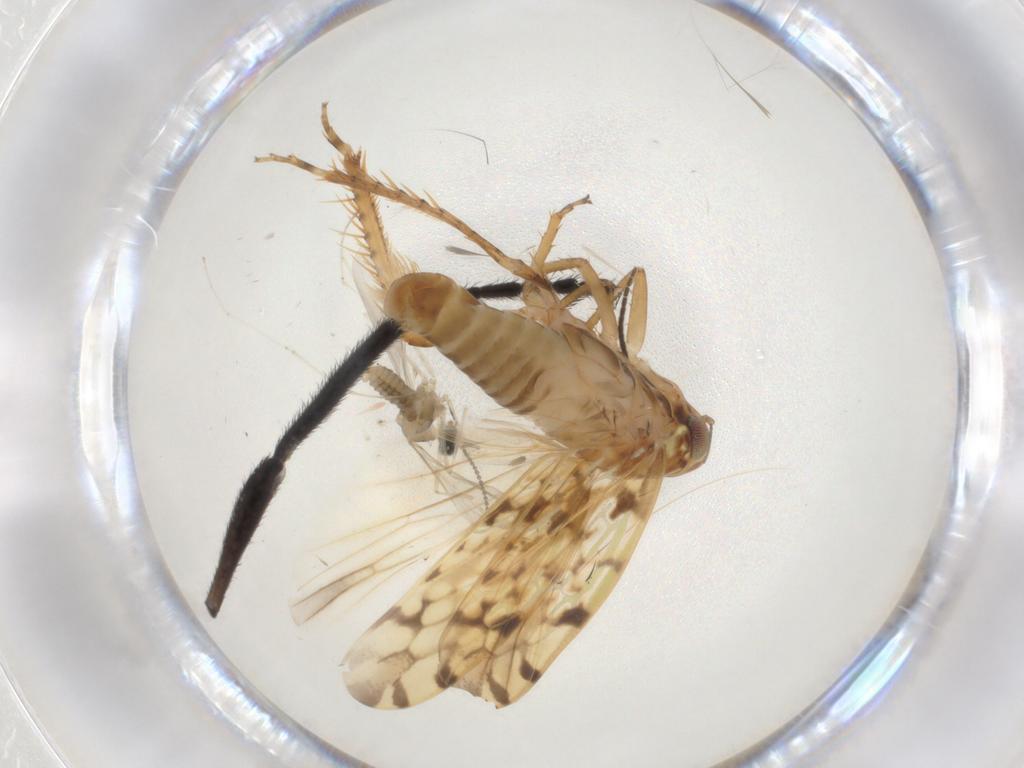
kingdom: Animalia
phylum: Arthropoda
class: Insecta
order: Hemiptera
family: Cicadellidae
